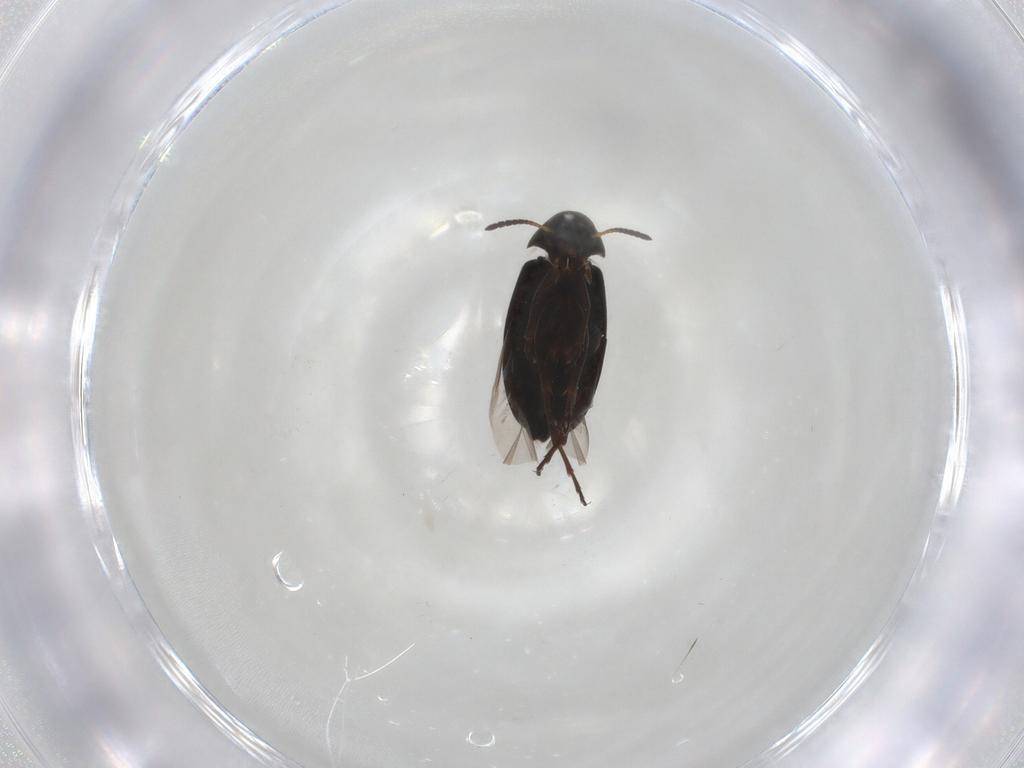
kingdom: Animalia
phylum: Arthropoda
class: Insecta
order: Coleoptera
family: Scraptiidae
